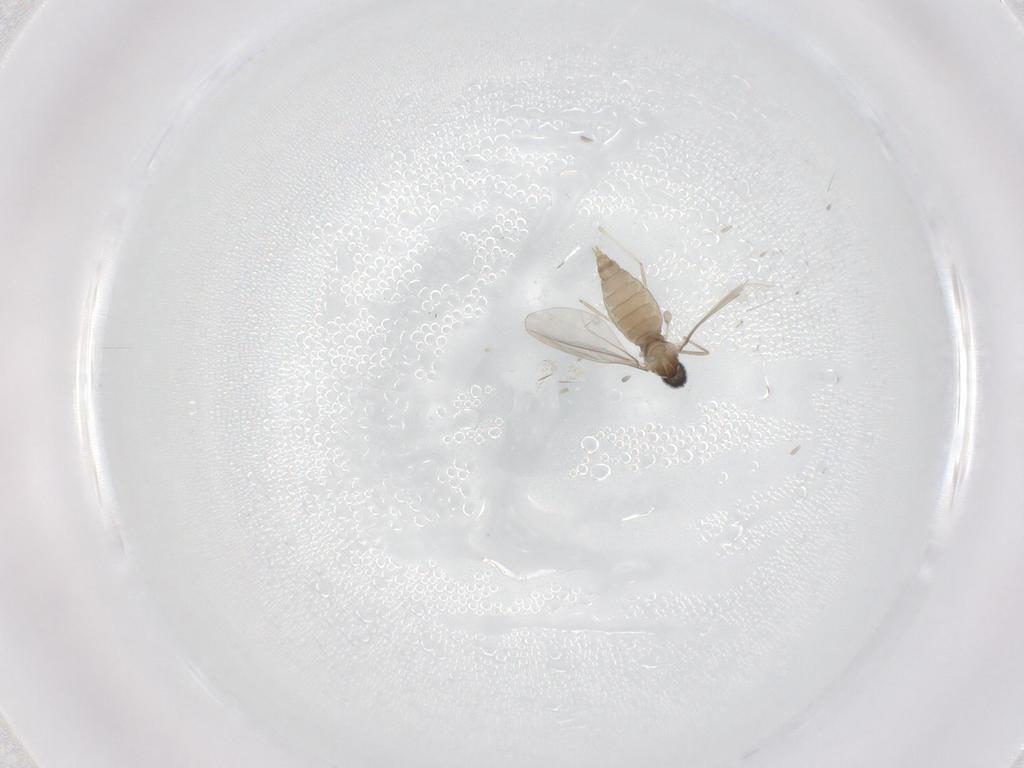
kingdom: Animalia
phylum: Arthropoda
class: Insecta
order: Diptera
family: Cecidomyiidae
